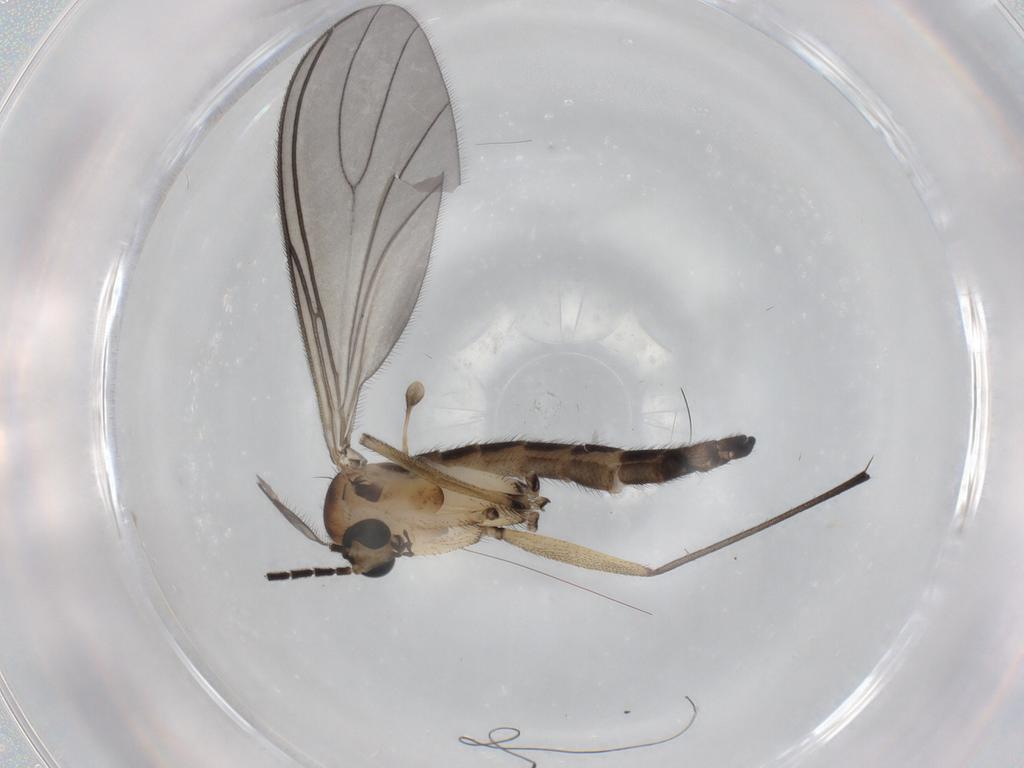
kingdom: Animalia
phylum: Arthropoda
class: Insecta
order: Diptera
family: Sciaridae
